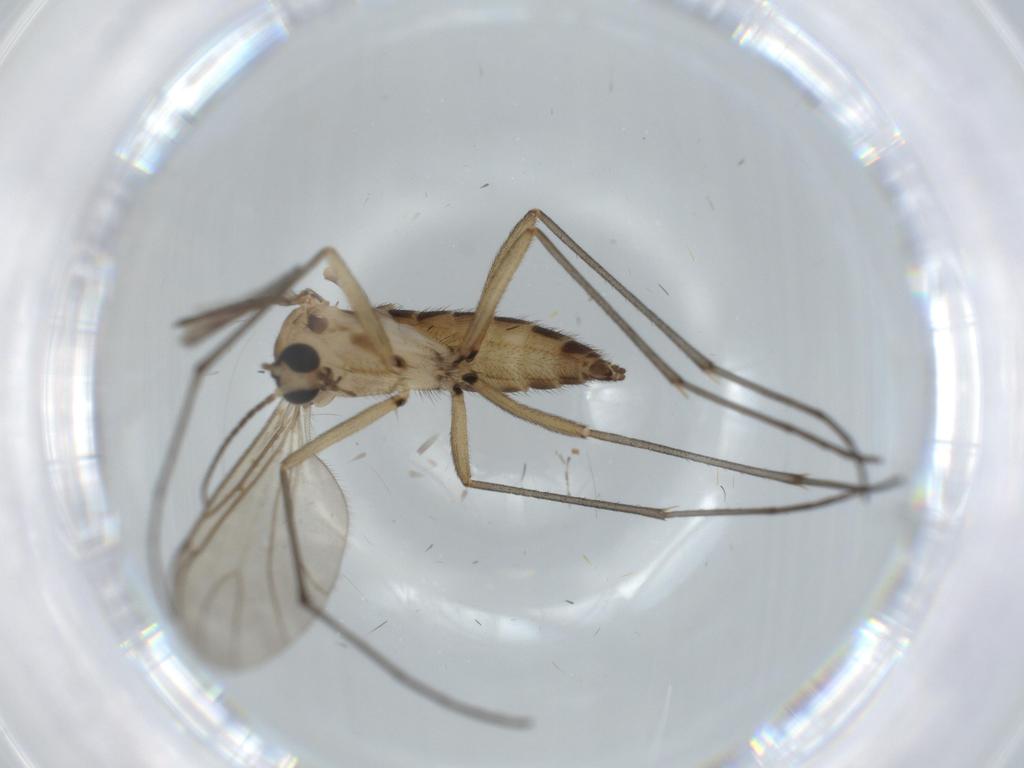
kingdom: Animalia
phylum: Arthropoda
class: Insecta
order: Diptera
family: Sciaridae
